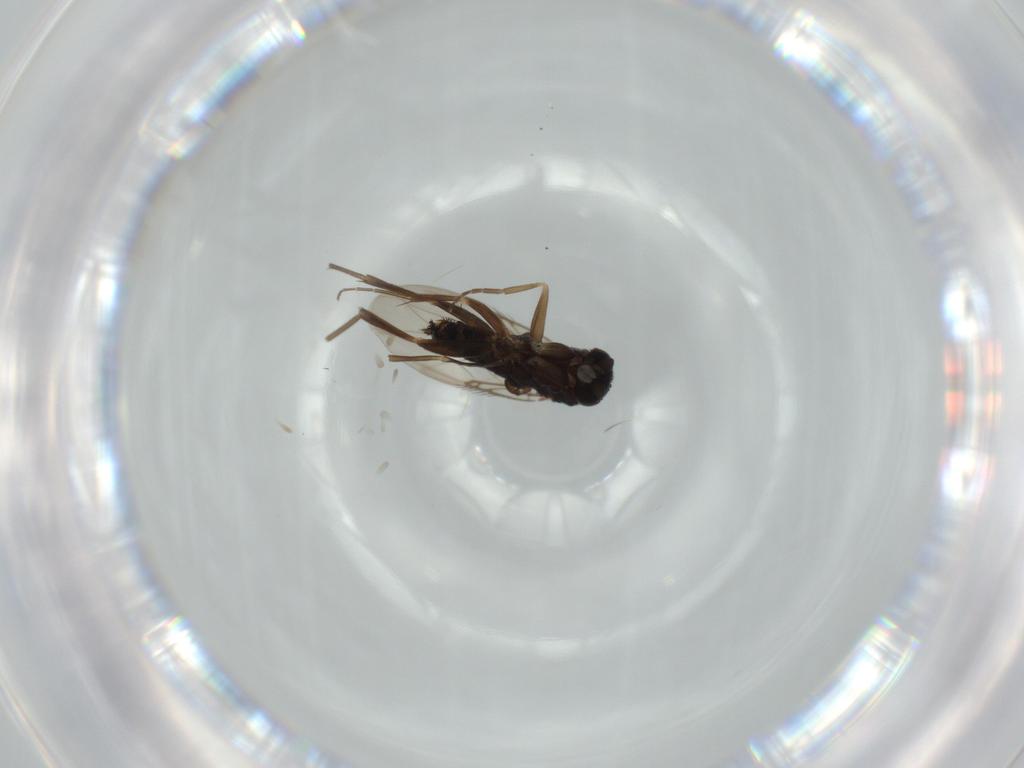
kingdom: Animalia
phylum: Arthropoda
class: Insecta
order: Diptera
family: Phoridae
